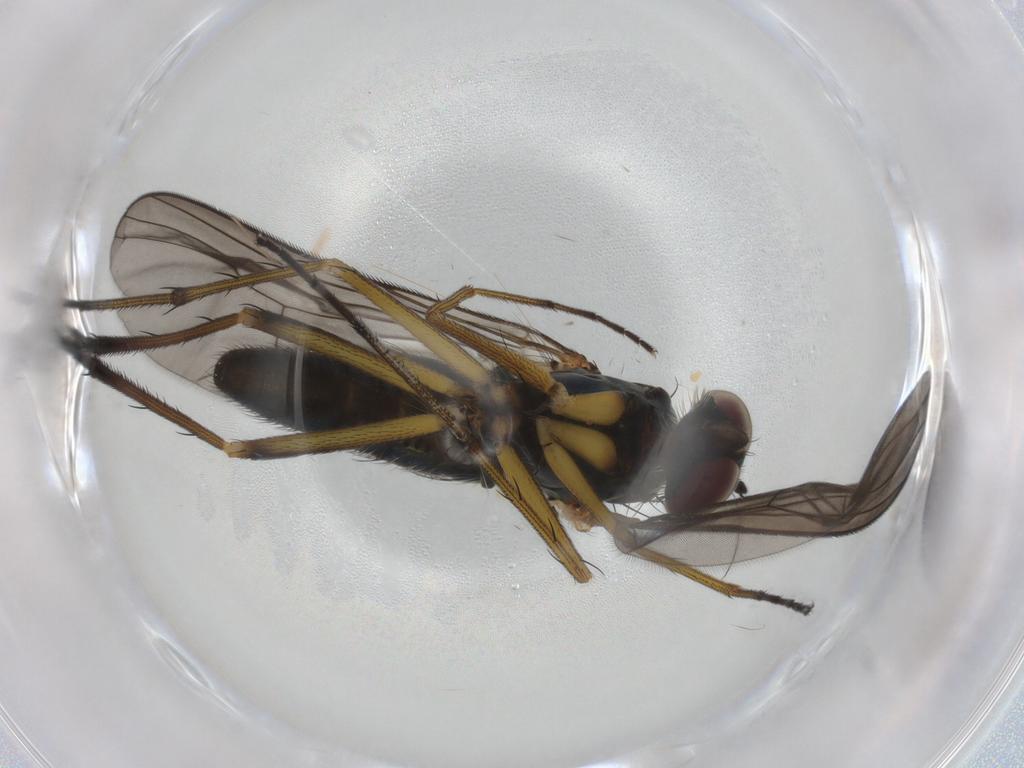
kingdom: Animalia
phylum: Arthropoda
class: Insecta
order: Diptera
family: Dolichopodidae
